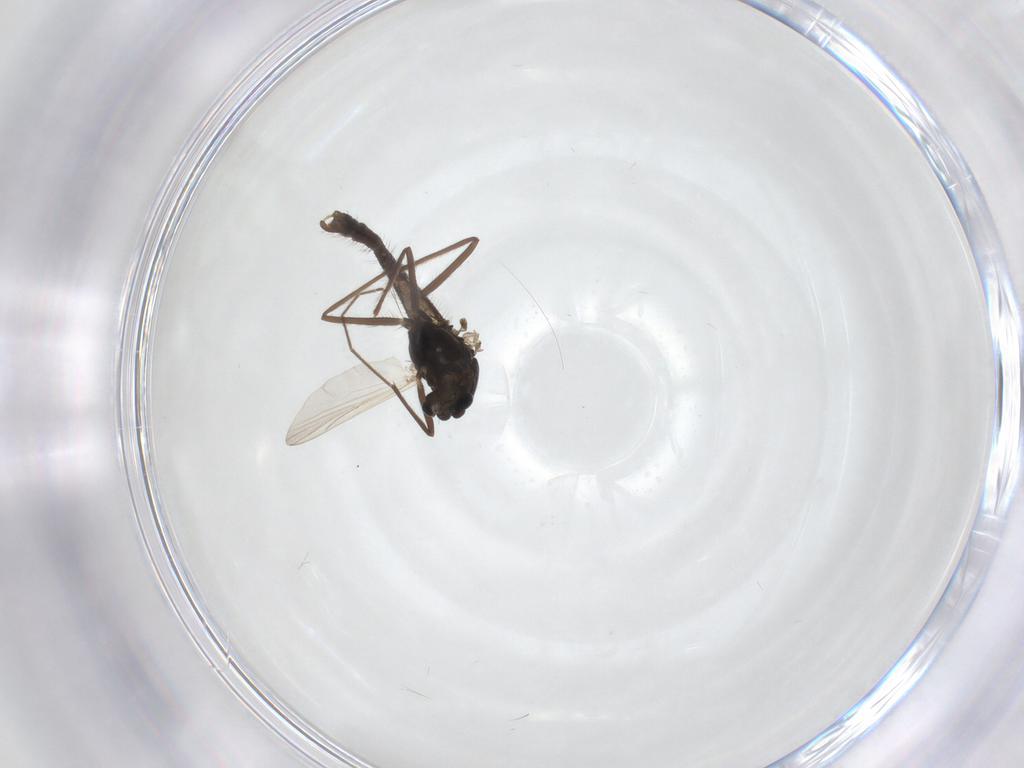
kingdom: Animalia
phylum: Arthropoda
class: Insecta
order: Diptera
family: Chironomidae
